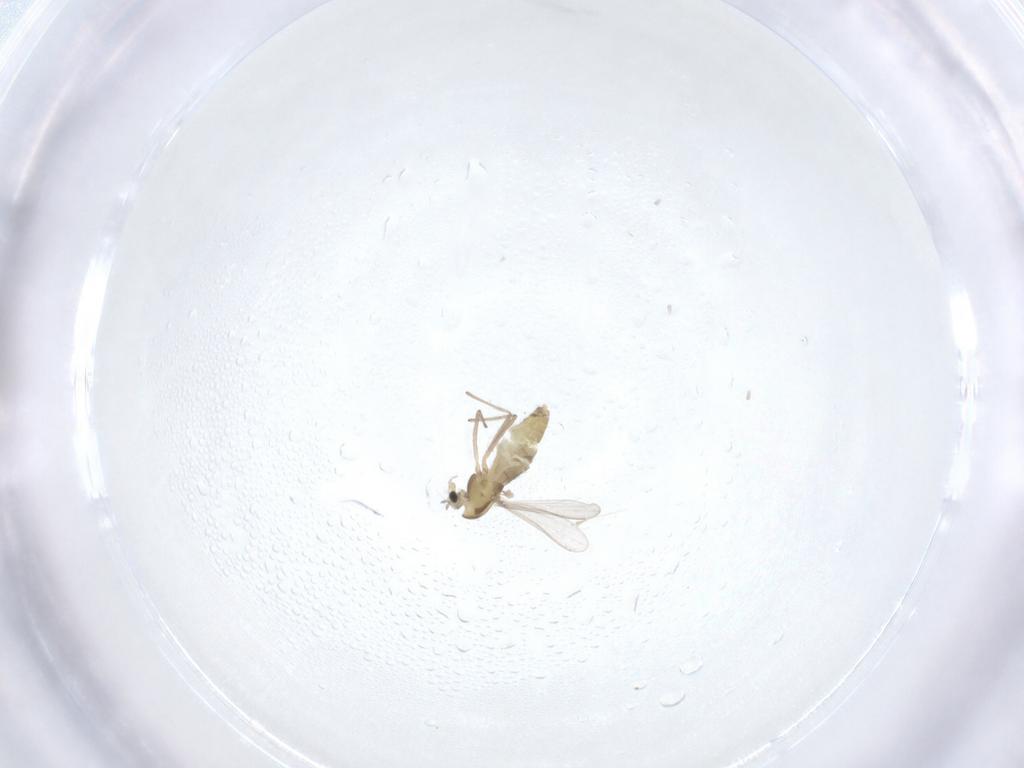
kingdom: Animalia
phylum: Arthropoda
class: Insecta
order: Diptera
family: Chironomidae
